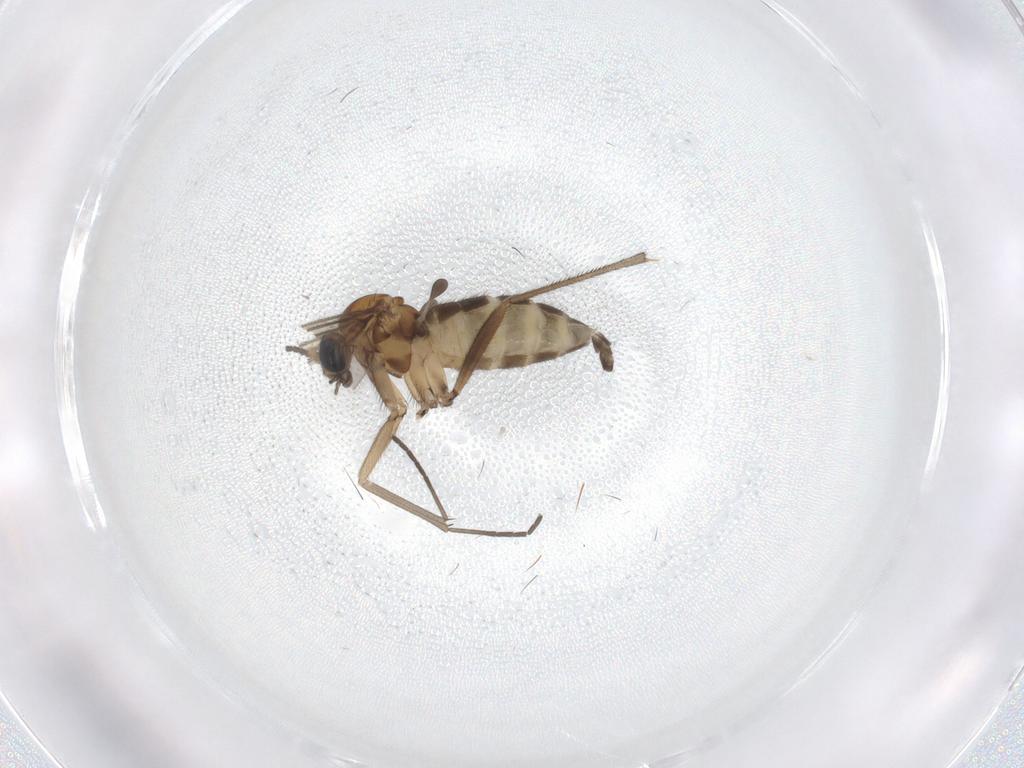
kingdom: Animalia
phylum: Arthropoda
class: Insecta
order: Diptera
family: Sciaridae
